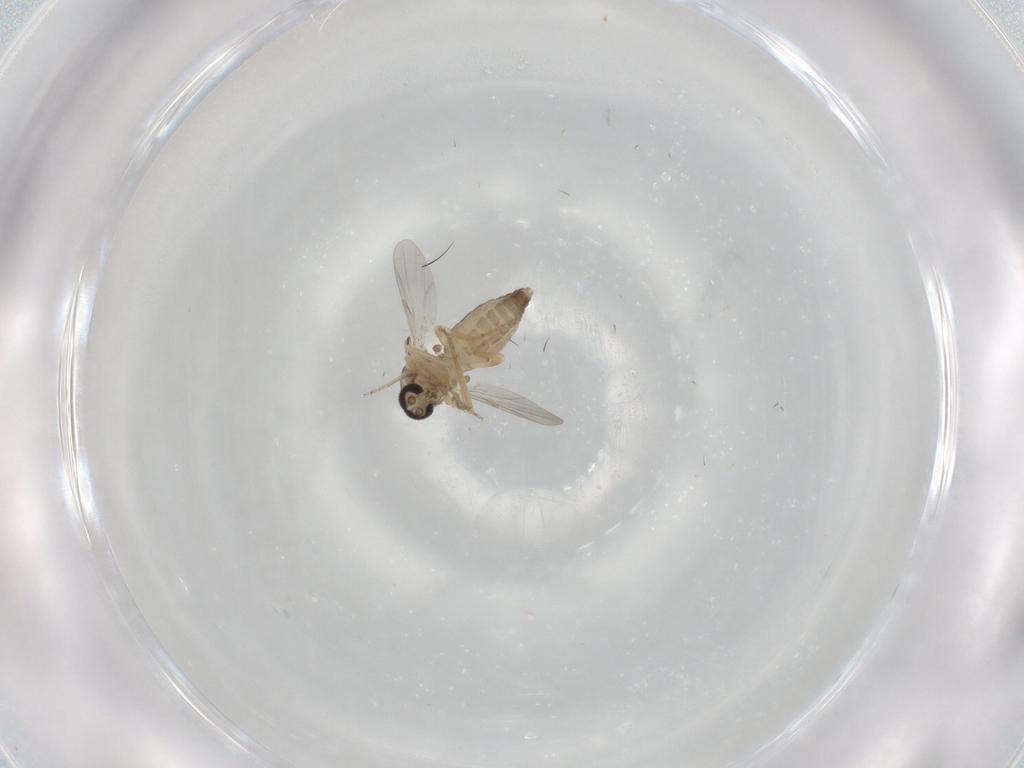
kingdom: Animalia
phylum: Arthropoda
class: Insecta
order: Diptera
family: Ceratopogonidae
